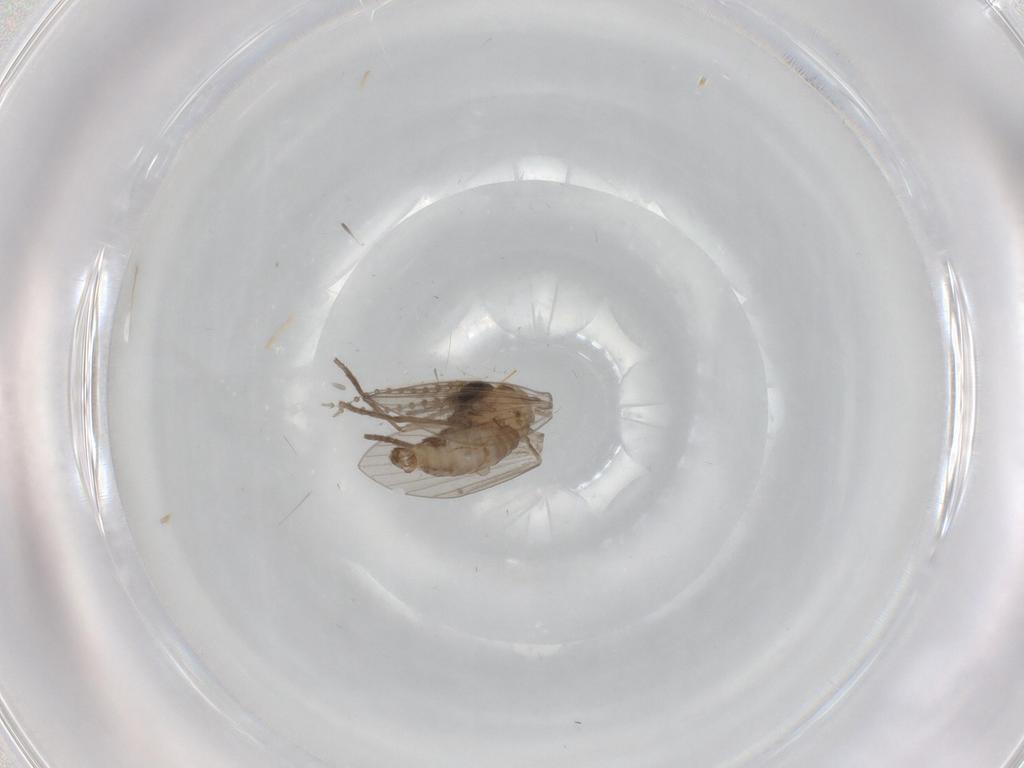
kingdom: Animalia
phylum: Arthropoda
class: Insecta
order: Diptera
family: Psychodidae
